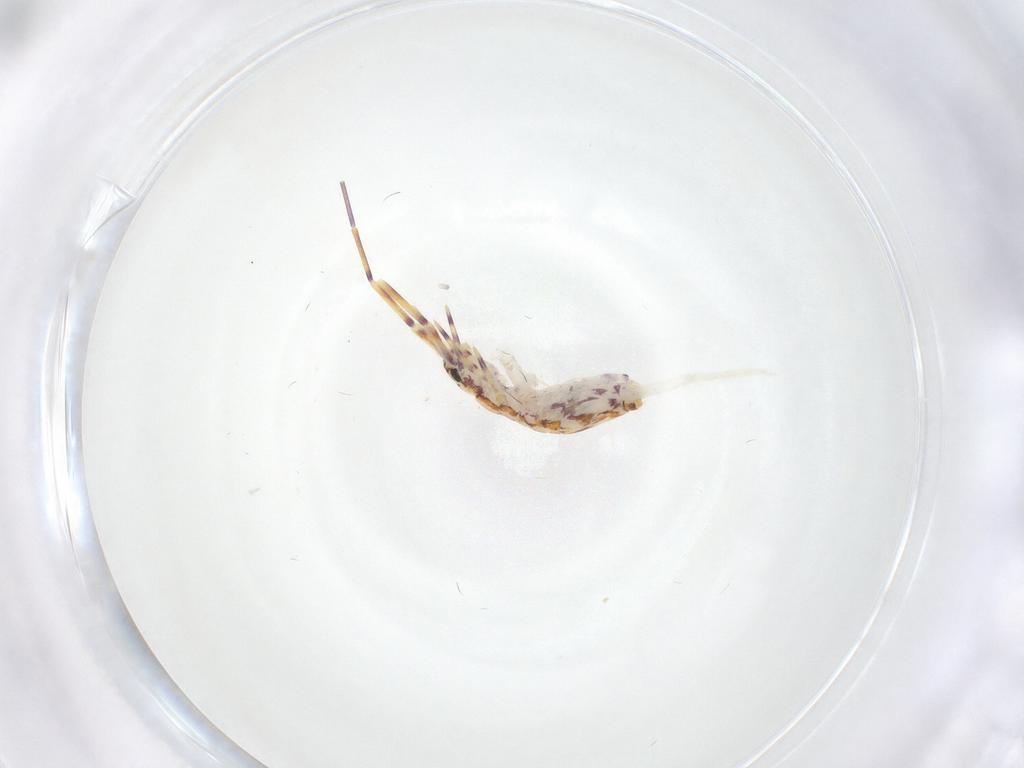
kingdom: Animalia
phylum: Arthropoda
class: Collembola
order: Entomobryomorpha
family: Entomobryidae
